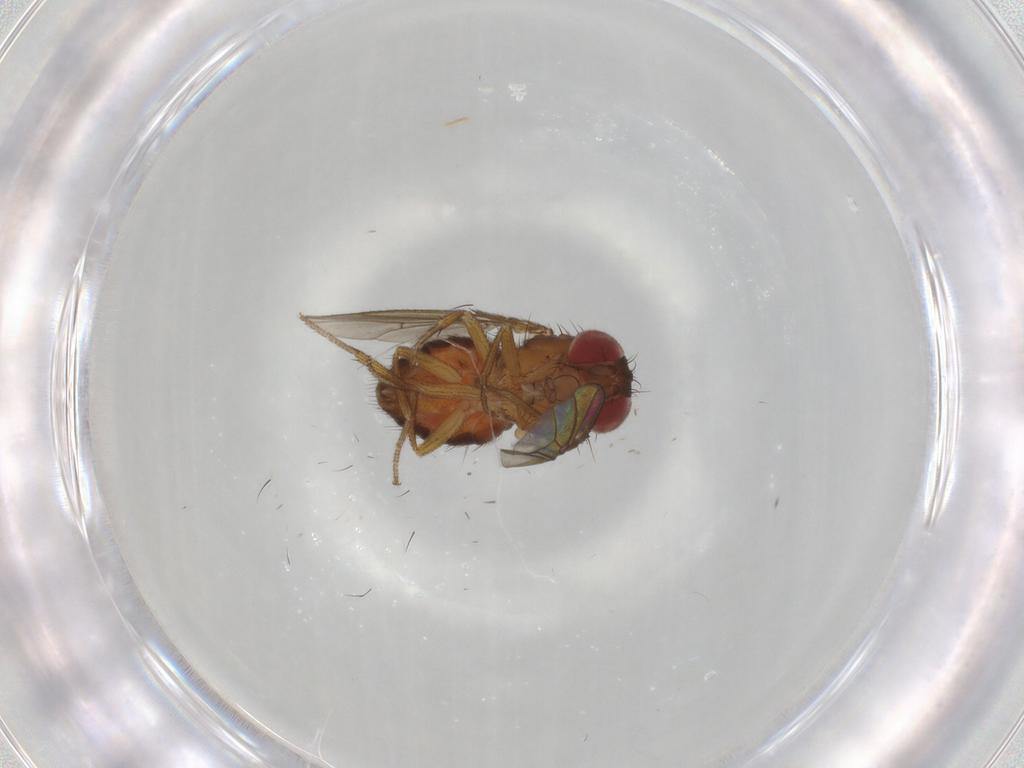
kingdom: Animalia
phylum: Arthropoda
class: Insecta
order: Diptera
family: Drosophilidae
